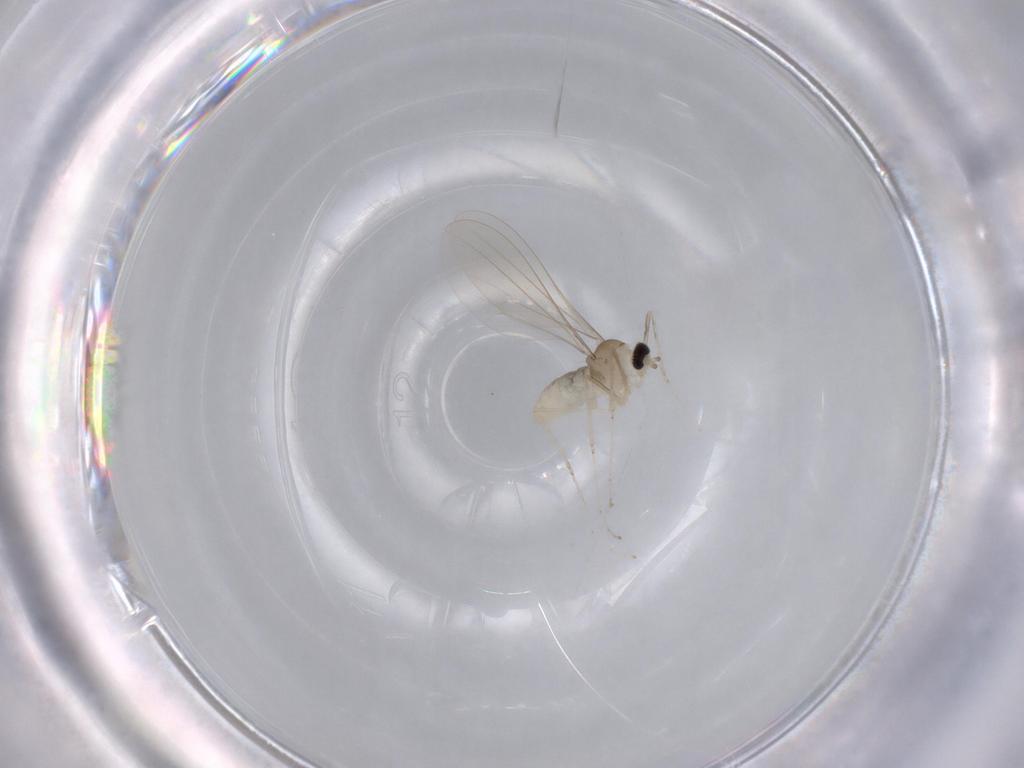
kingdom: Animalia
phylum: Arthropoda
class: Insecta
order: Diptera
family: Cecidomyiidae
